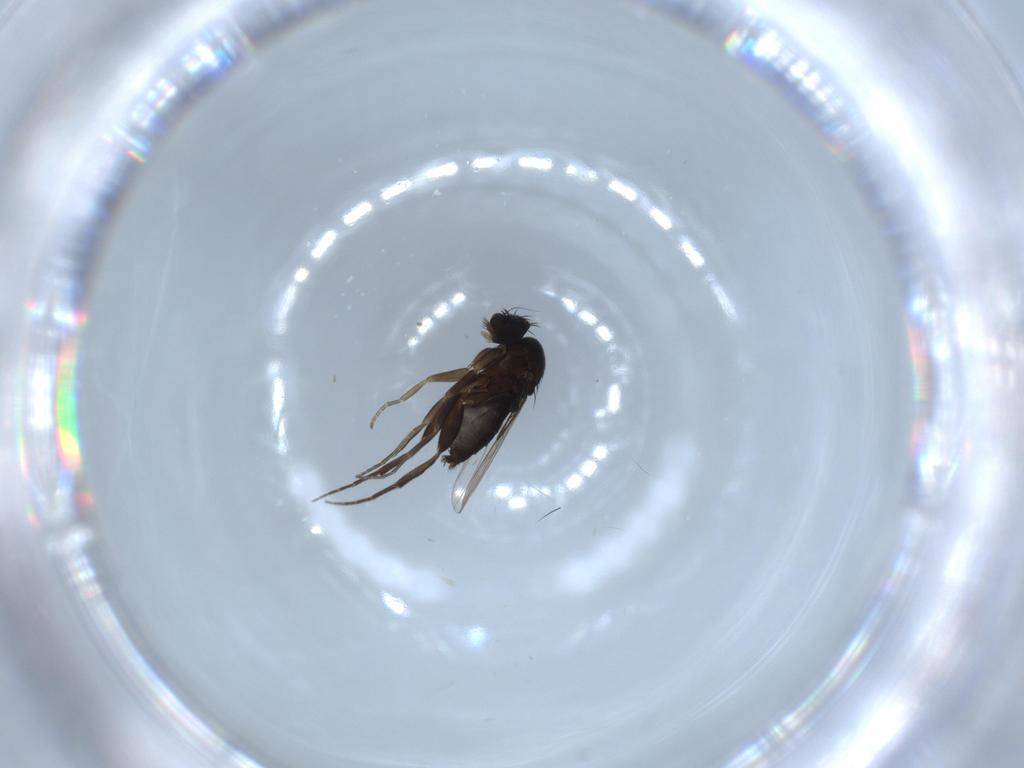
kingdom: Animalia
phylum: Arthropoda
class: Insecta
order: Diptera
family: Phoridae
